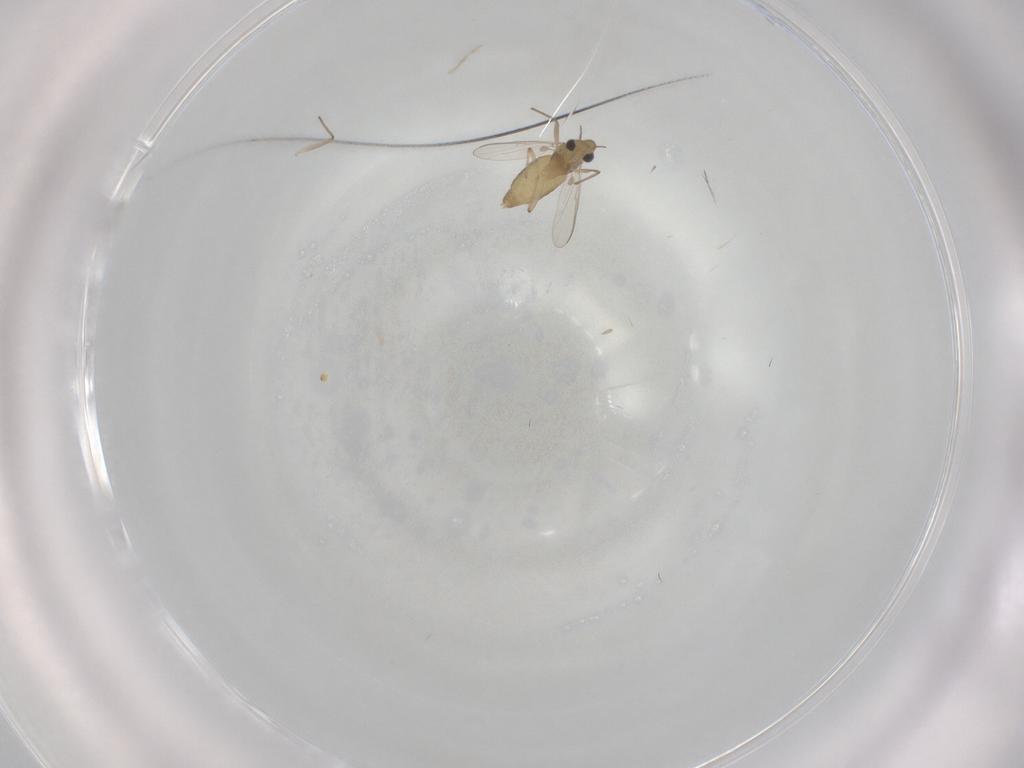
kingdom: Animalia
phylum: Arthropoda
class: Insecta
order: Diptera
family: Chironomidae
